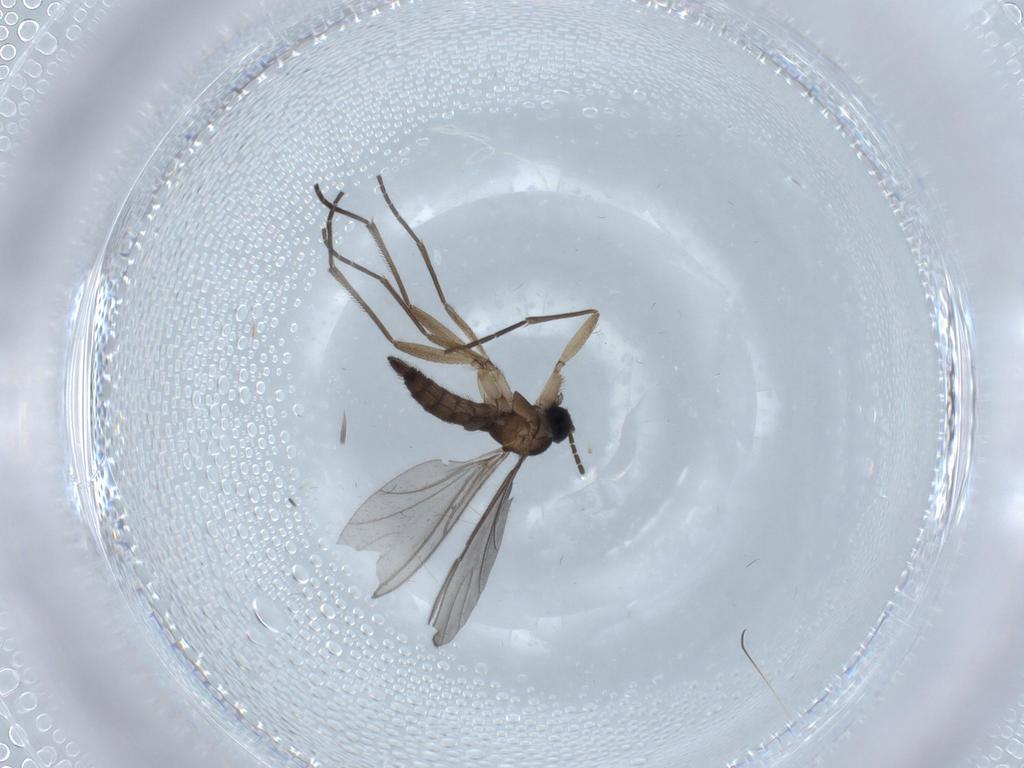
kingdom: Animalia
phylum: Arthropoda
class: Insecta
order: Diptera
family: Sciaridae
